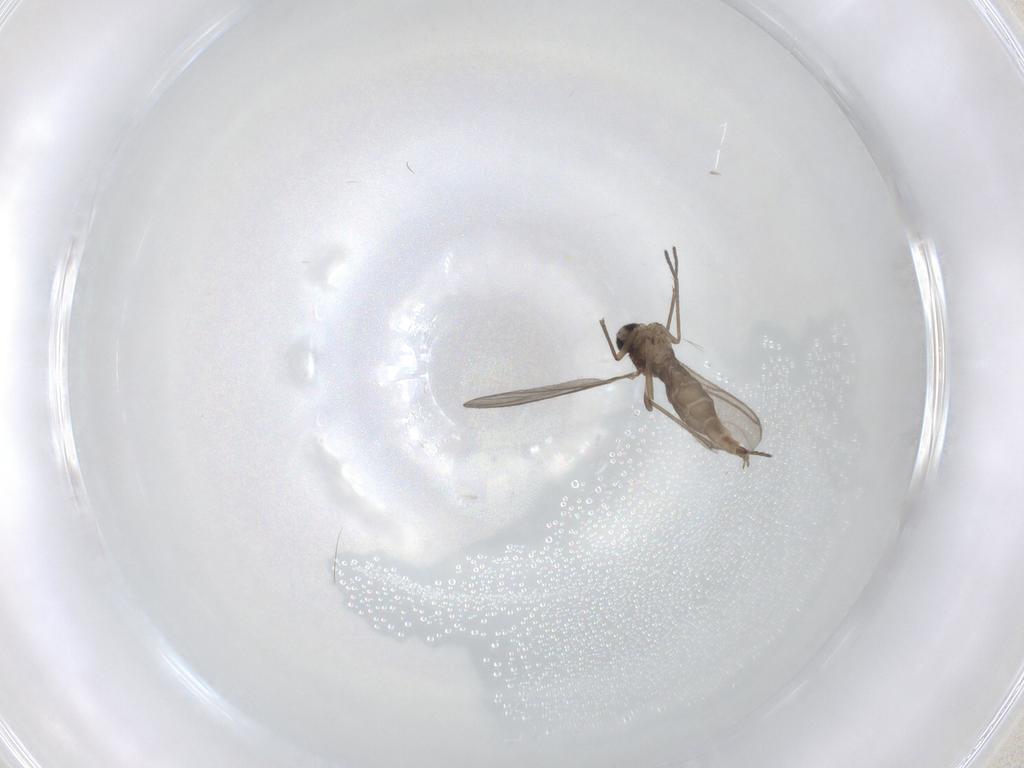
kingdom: Animalia
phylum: Arthropoda
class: Insecta
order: Diptera
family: Sciaridae
